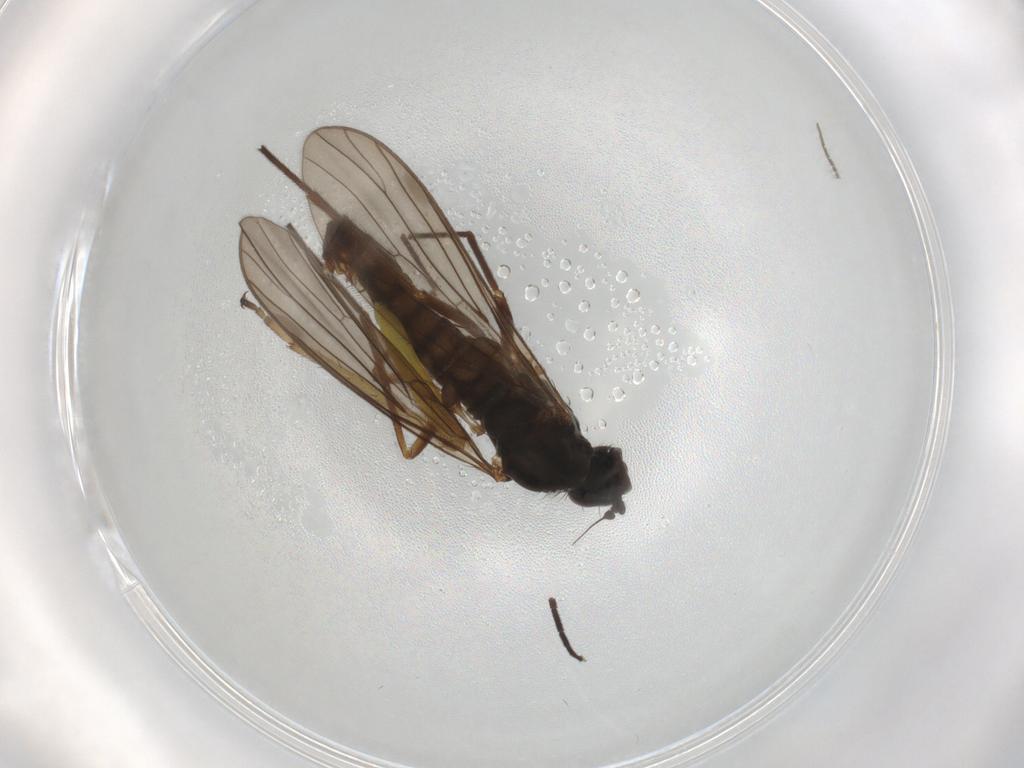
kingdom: Animalia
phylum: Arthropoda
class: Insecta
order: Diptera
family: Empididae
